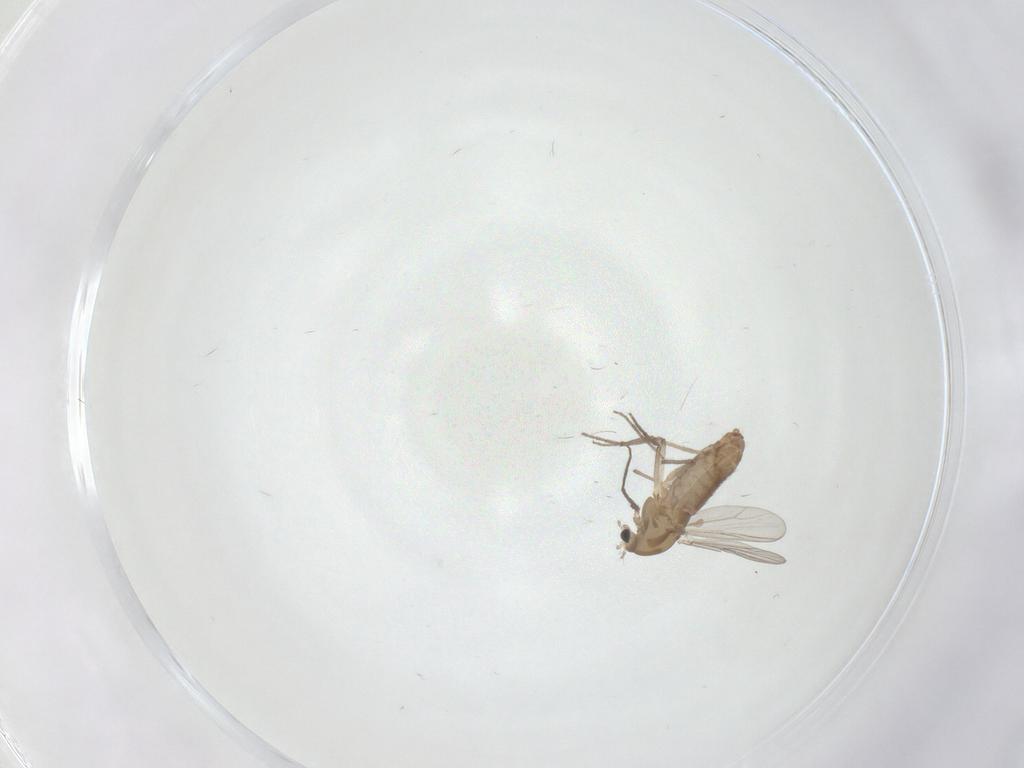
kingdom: Animalia
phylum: Arthropoda
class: Insecta
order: Diptera
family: Chironomidae
